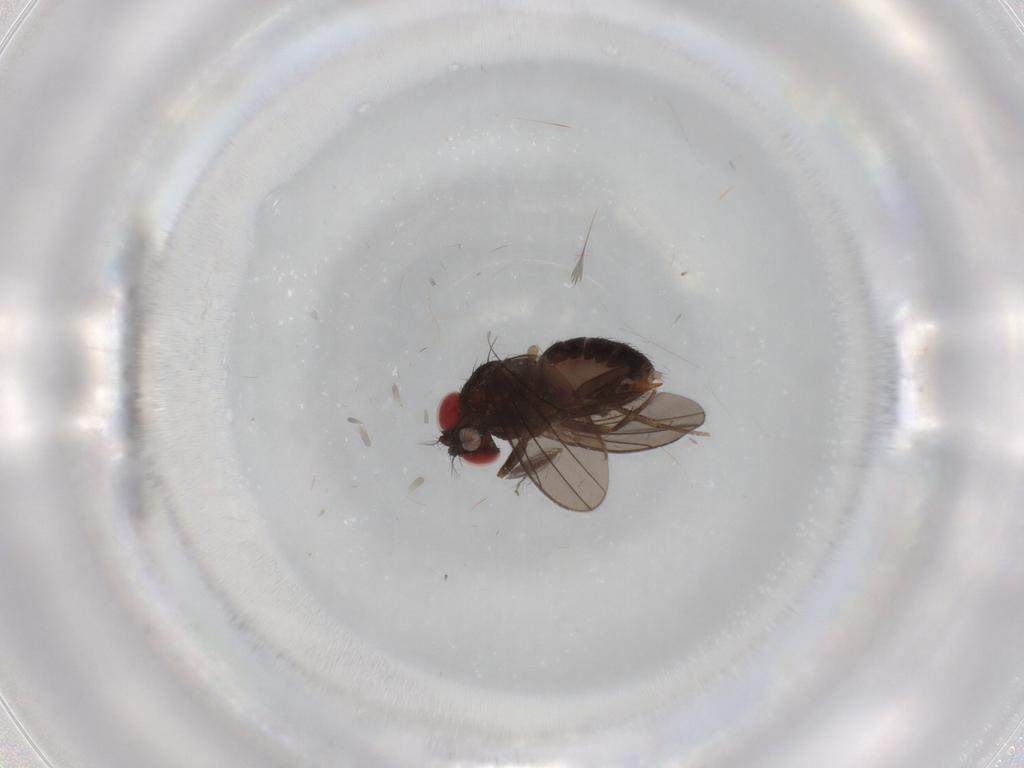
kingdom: Animalia
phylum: Arthropoda
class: Insecta
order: Diptera
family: Drosophilidae
